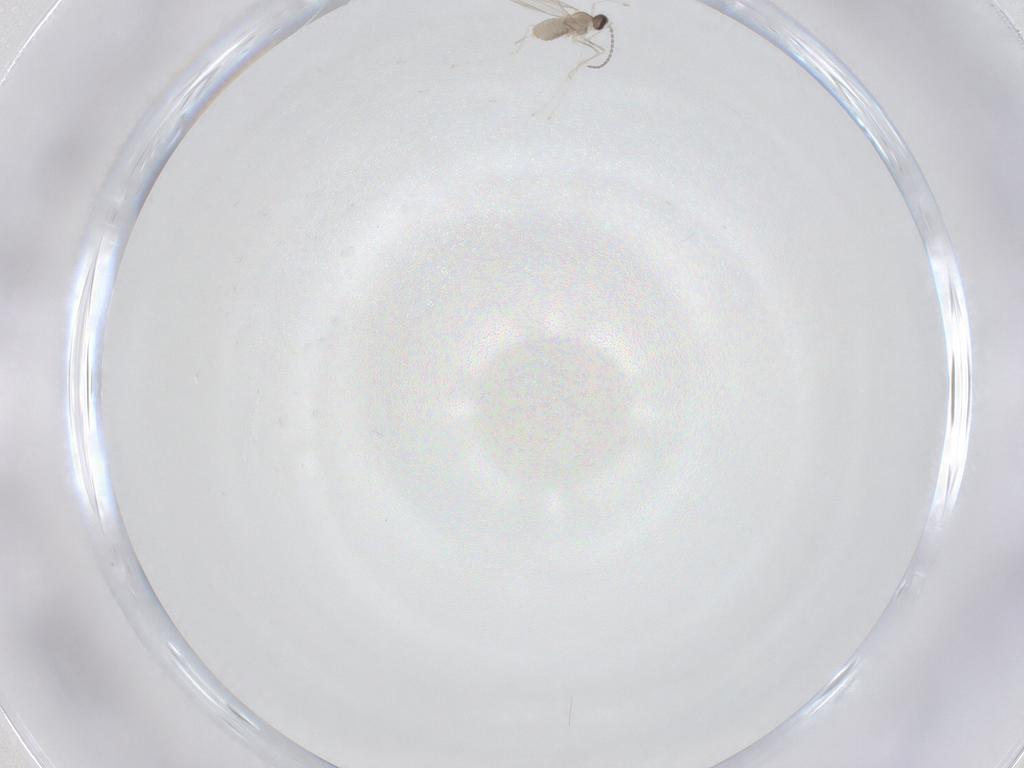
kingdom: Animalia
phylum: Arthropoda
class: Insecta
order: Diptera
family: Cecidomyiidae
